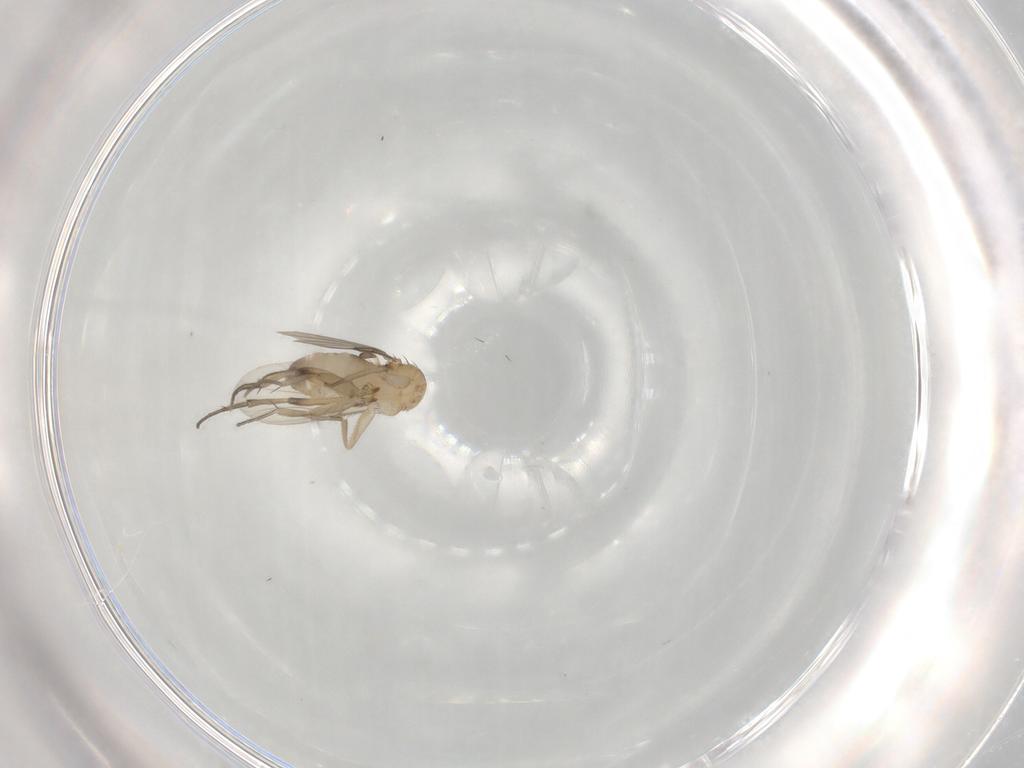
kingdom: Animalia
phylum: Arthropoda
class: Insecta
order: Diptera
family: Phoridae
